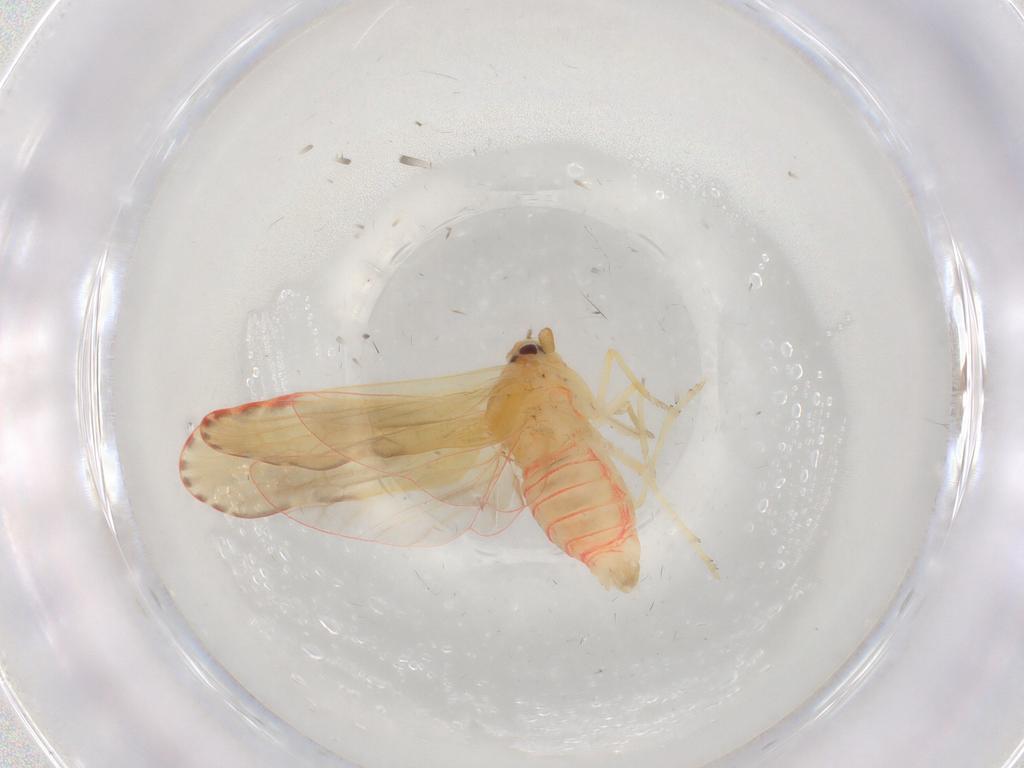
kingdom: Animalia
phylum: Arthropoda
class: Insecta
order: Hemiptera
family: Derbidae
